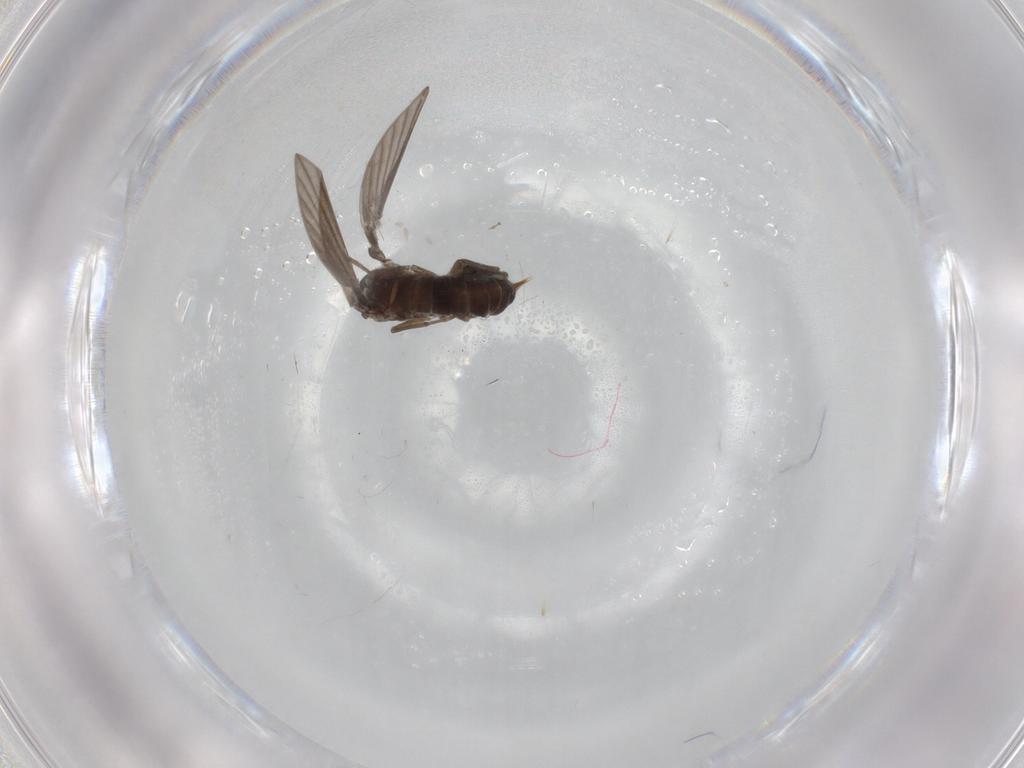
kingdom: Animalia
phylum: Arthropoda
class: Insecta
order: Diptera
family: Psychodidae
